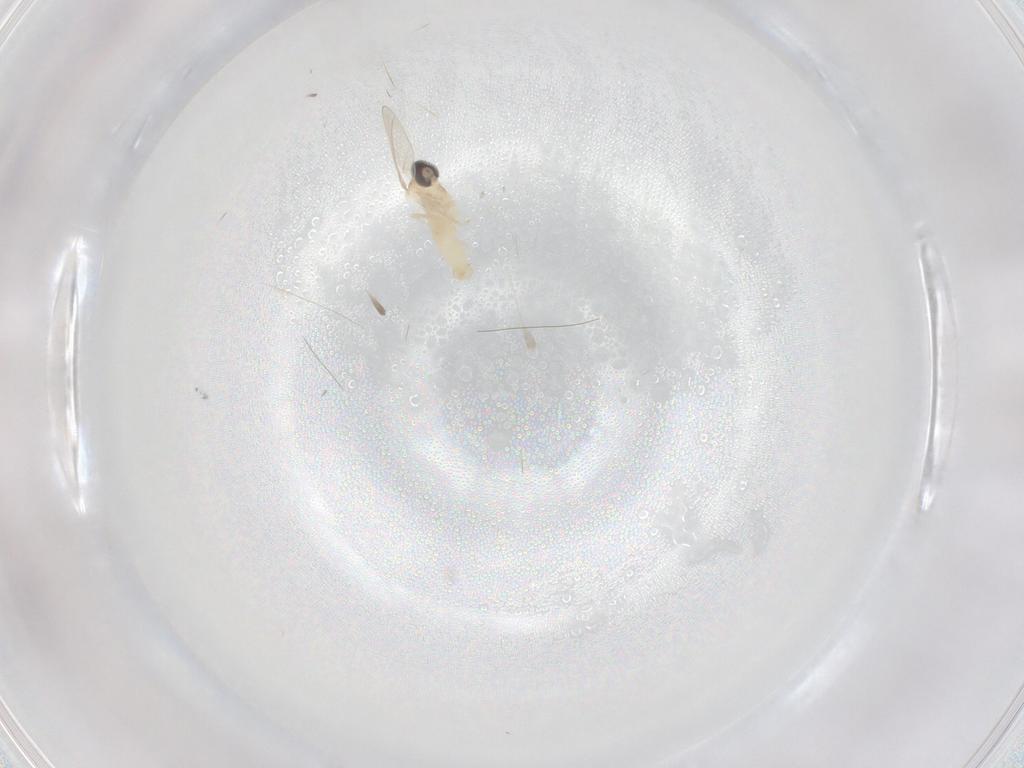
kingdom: Animalia
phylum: Arthropoda
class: Insecta
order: Diptera
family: Cecidomyiidae
